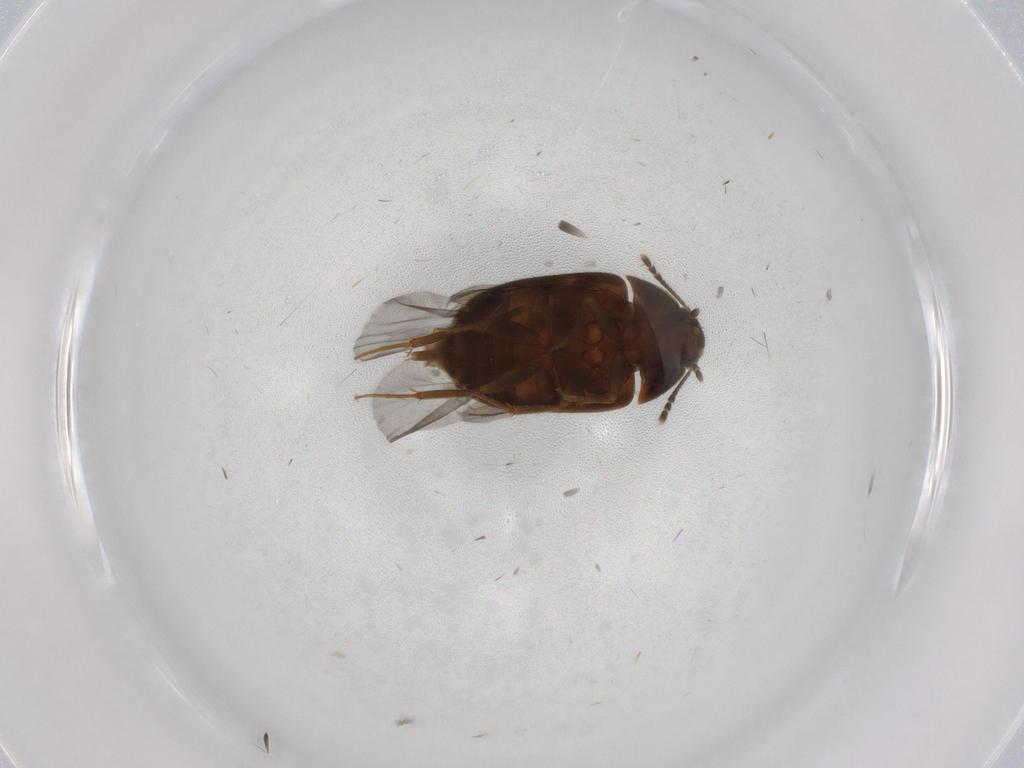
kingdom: Animalia
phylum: Arthropoda
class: Insecta
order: Coleoptera
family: Mycetophagidae
